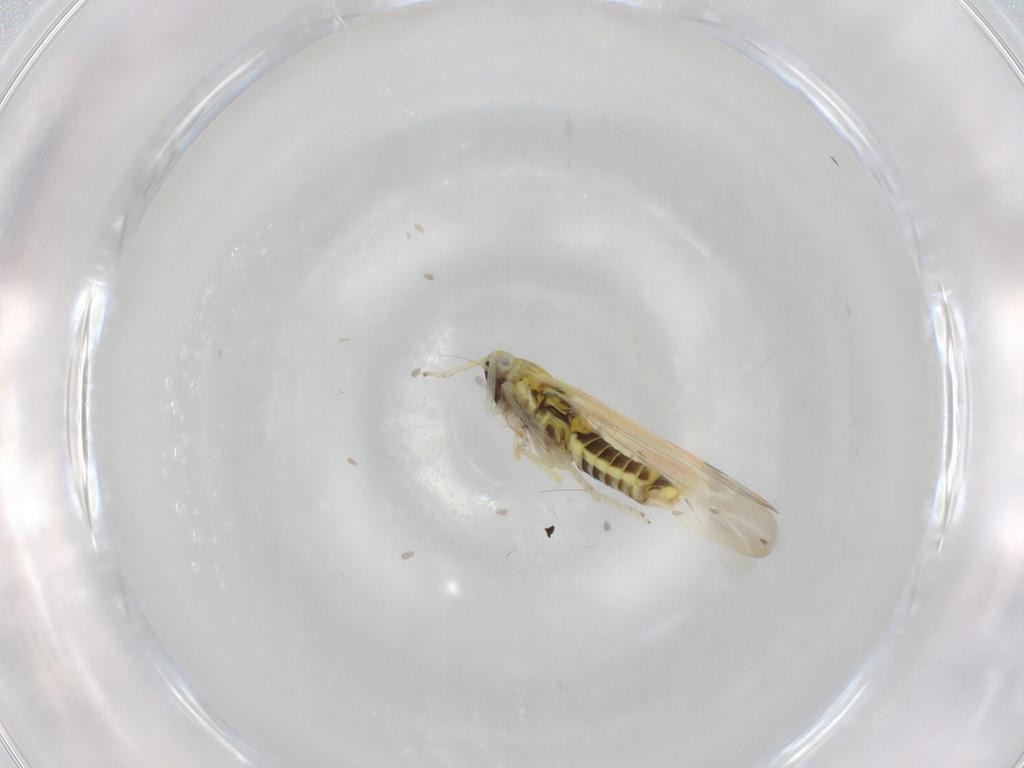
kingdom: Animalia
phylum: Arthropoda
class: Insecta
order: Hemiptera
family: Cicadellidae
